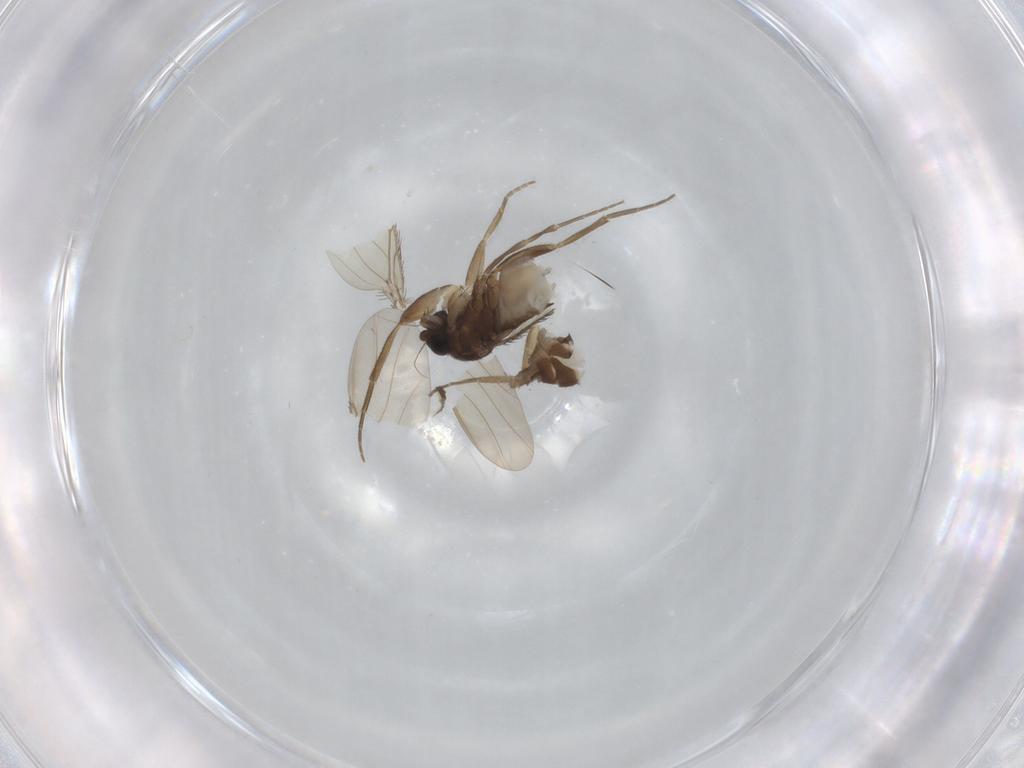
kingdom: Animalia
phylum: Arthropoda
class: Insecta
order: Diptera
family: Phoridae
